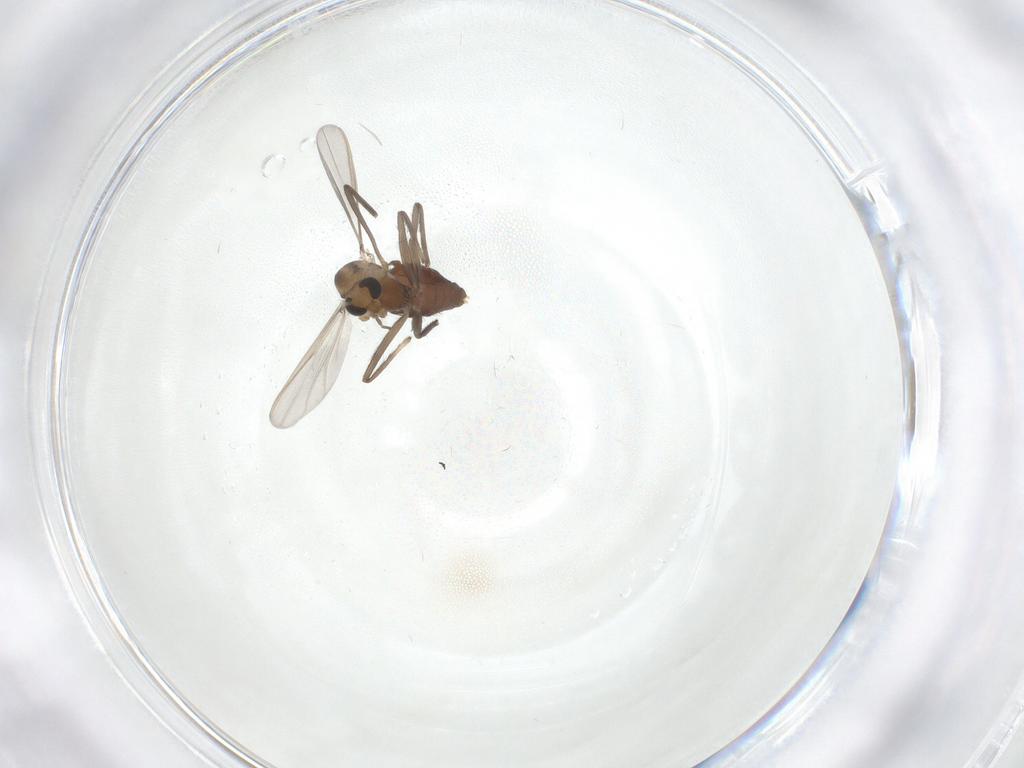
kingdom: Animalia
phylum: Arthropoda
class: Insecta
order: Diptera
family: Chironomidae
